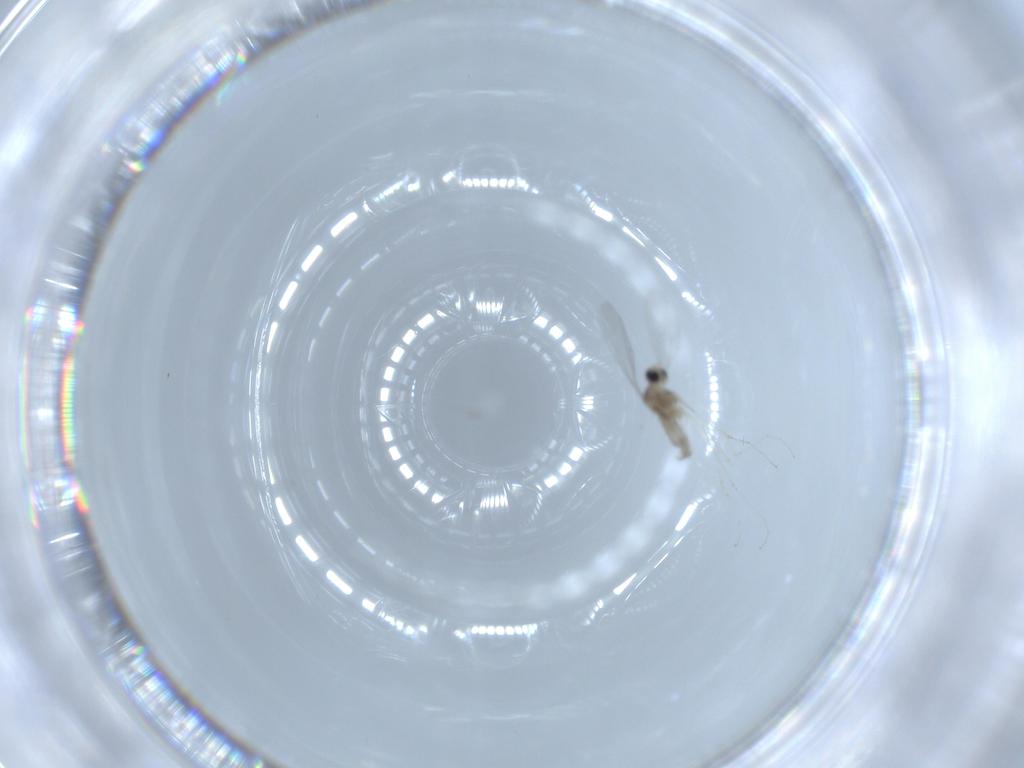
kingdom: Animalia
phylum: Arthropoda
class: Insecta
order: Diptera
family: Cecidomyiidae
